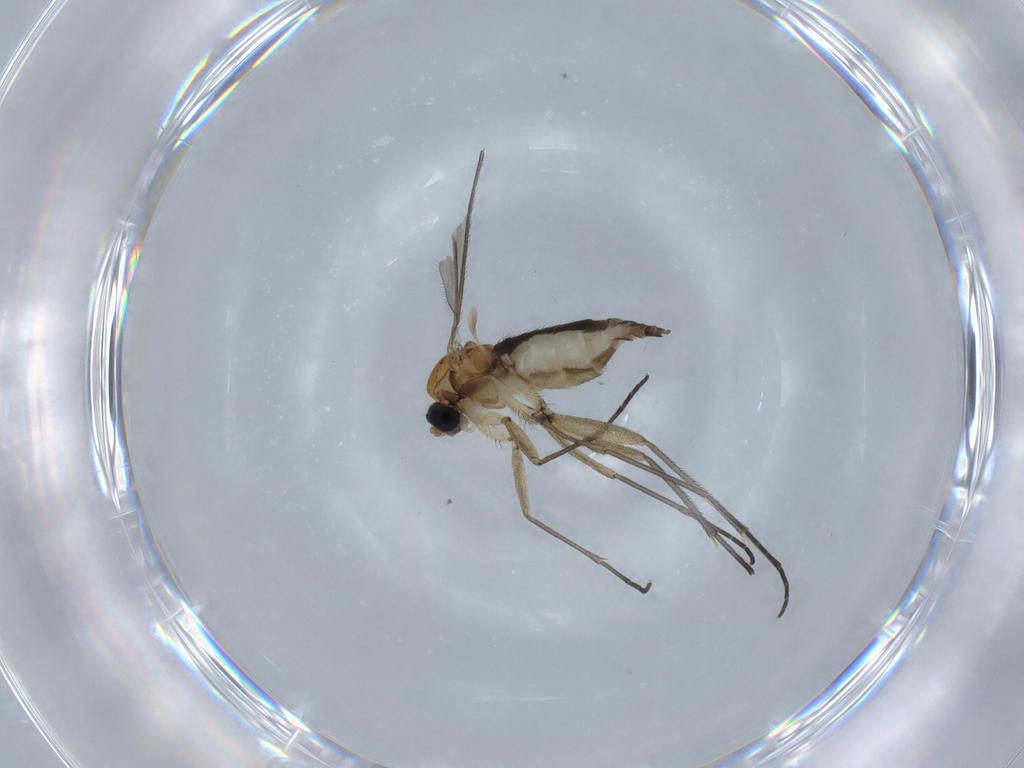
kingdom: Animalia
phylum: Arthropoda
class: Insecta
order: Diptera
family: Sciaridae
